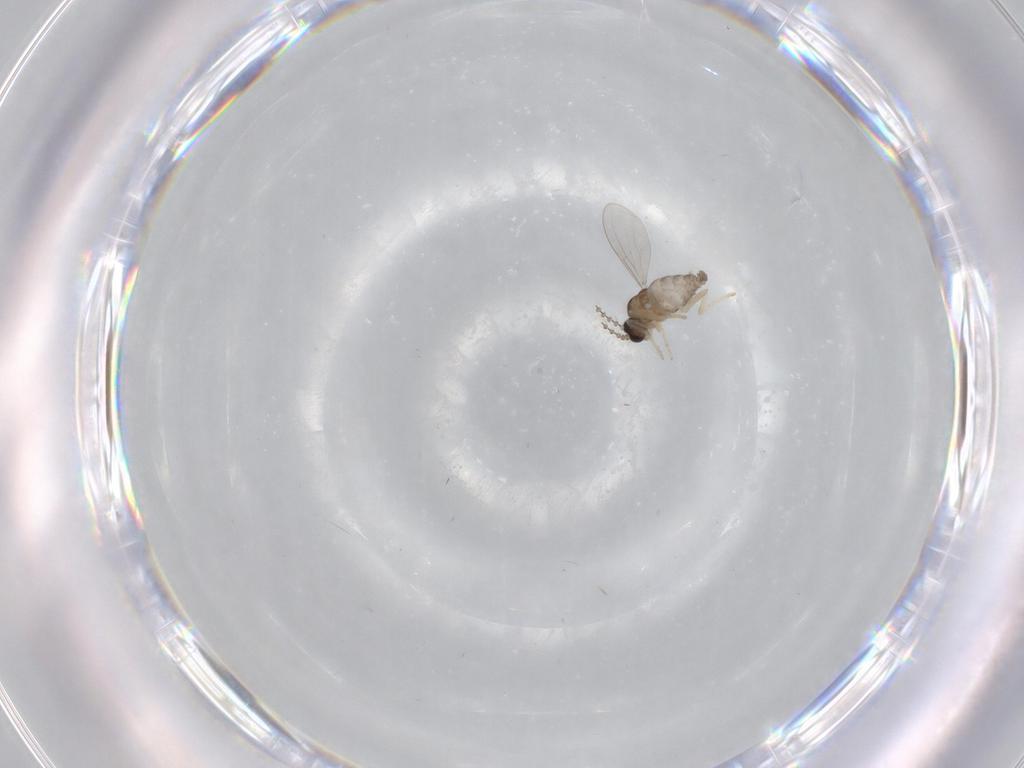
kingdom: Animalia
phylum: Arthropoda
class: Insecta
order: Diptera
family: Cecidomyiidae
